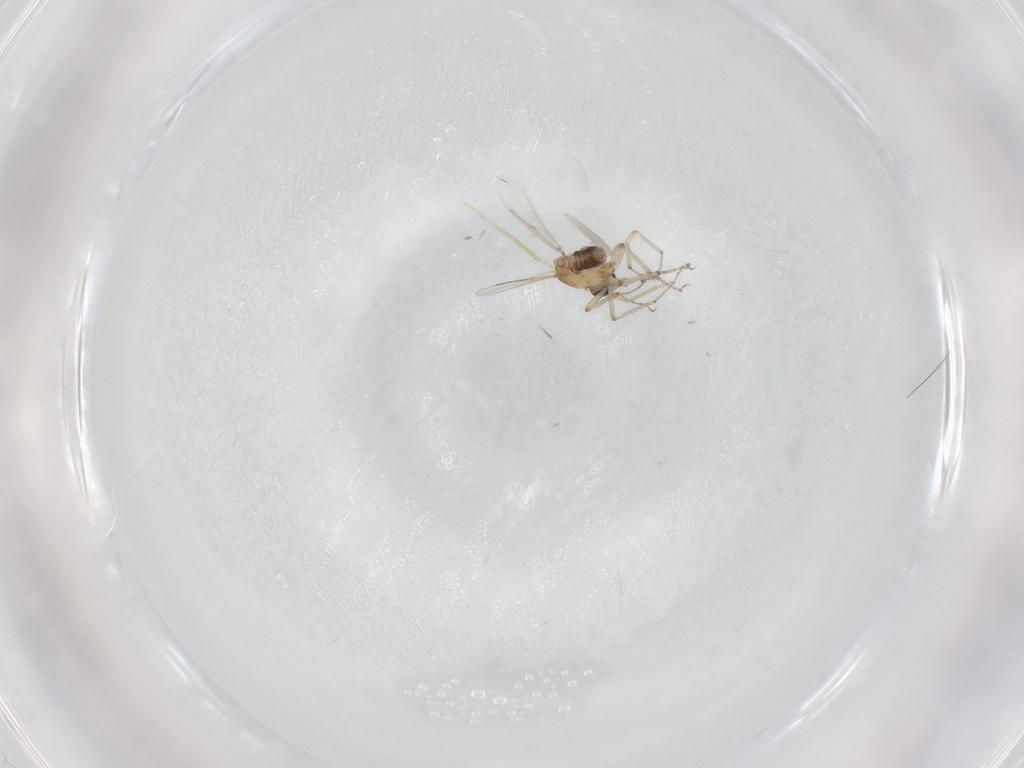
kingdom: Animalia
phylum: Arthropoda
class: Insecta
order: Diptera
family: Ceratopogonidae
